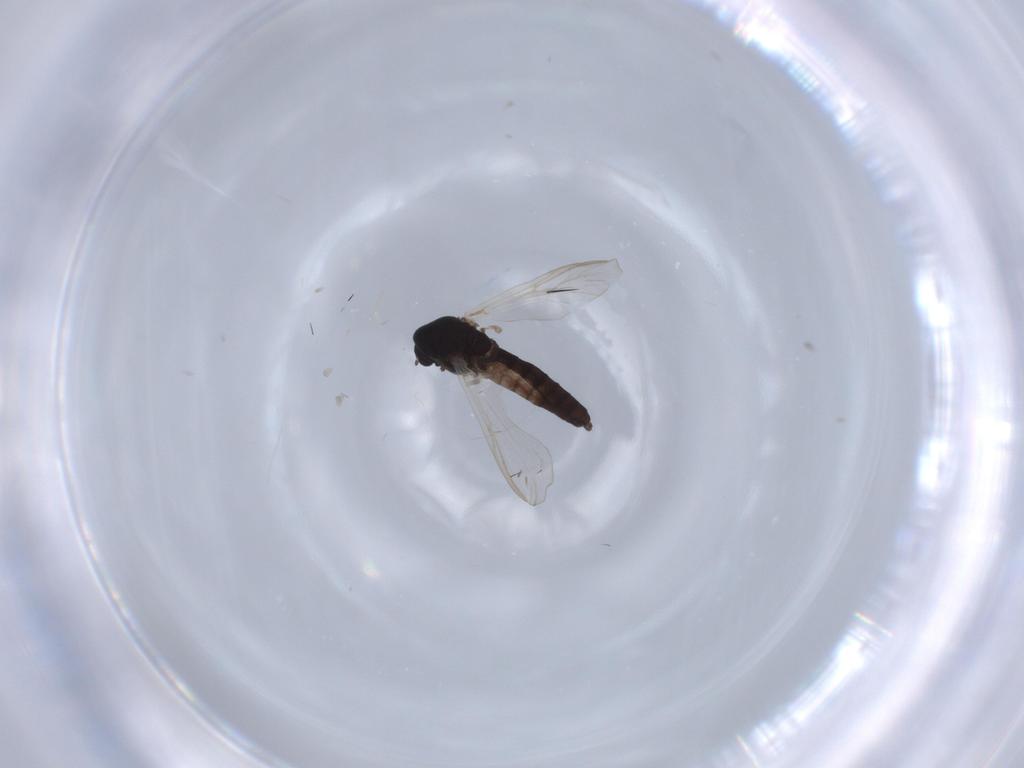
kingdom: Animalia
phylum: Arthropoda
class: Insecta
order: Diptera
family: Chironomidae
